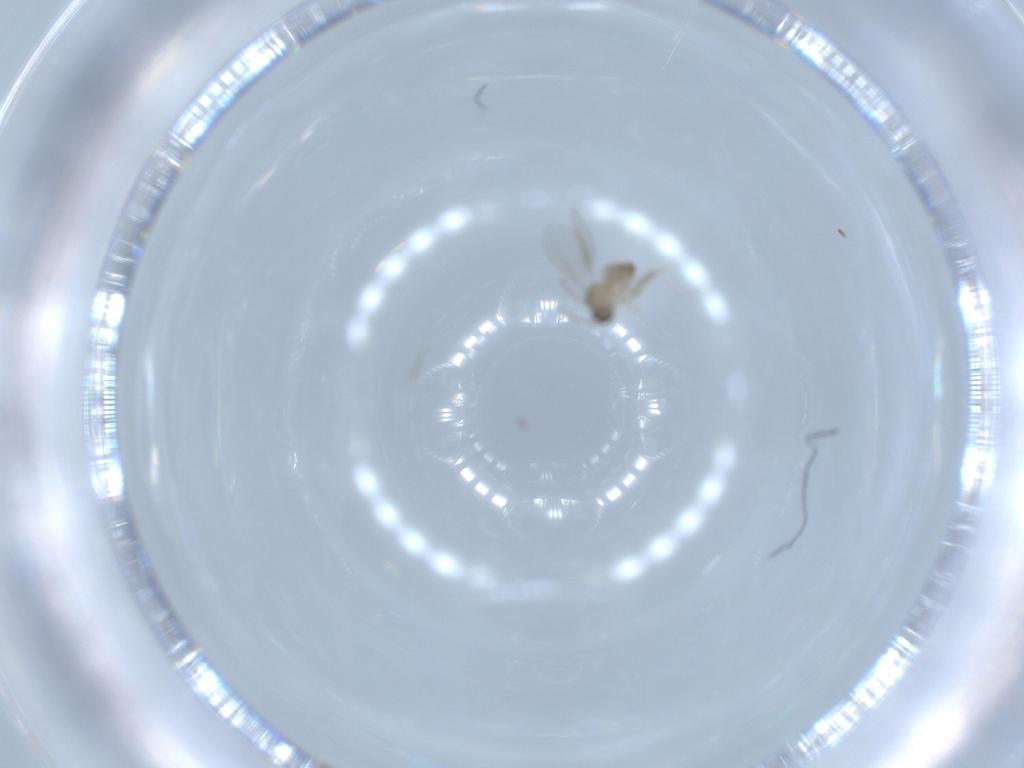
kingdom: Animalia
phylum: Arthropoda
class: Insecta
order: Diptera
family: Cecidomyiidae
